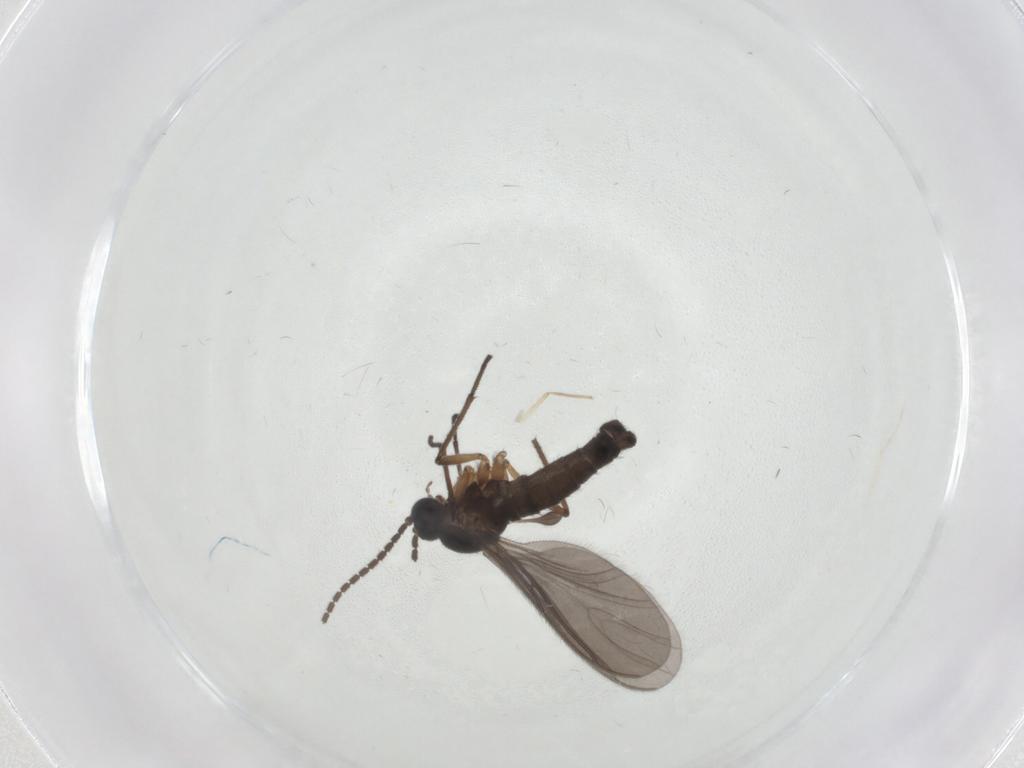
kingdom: Animalia
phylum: Arthropoda
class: Insecta
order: Diptera
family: Sciaridae
